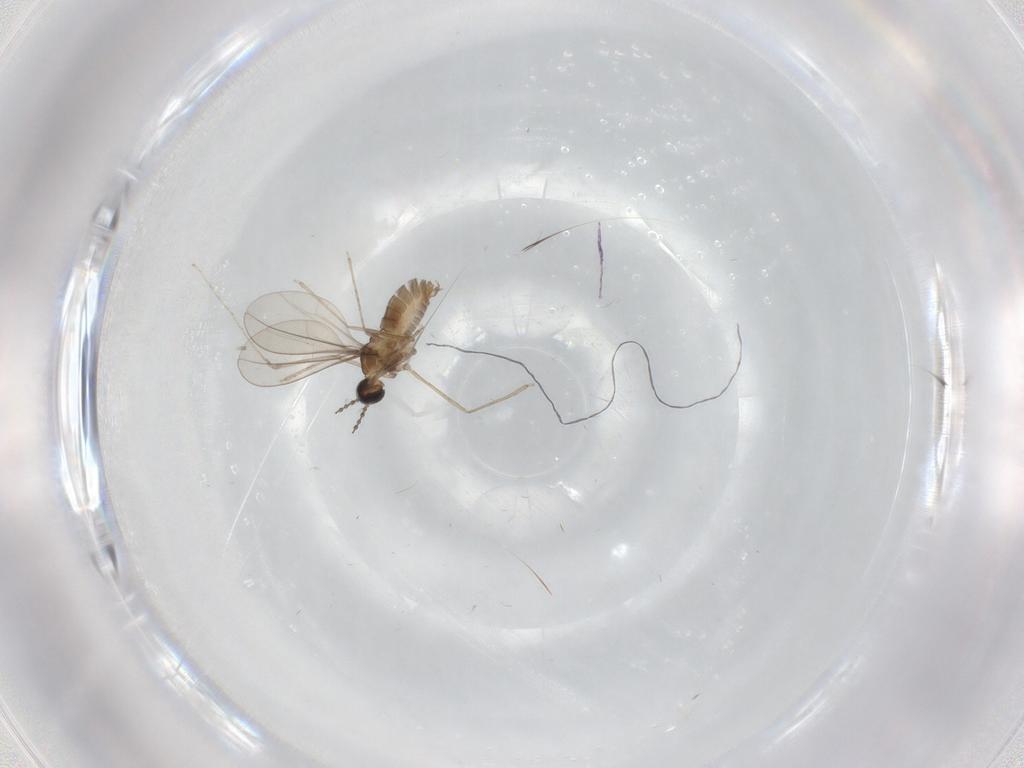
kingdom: Animalia
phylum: Arthropoda
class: Insecta
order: Diptera
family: Cecidomyiidae
